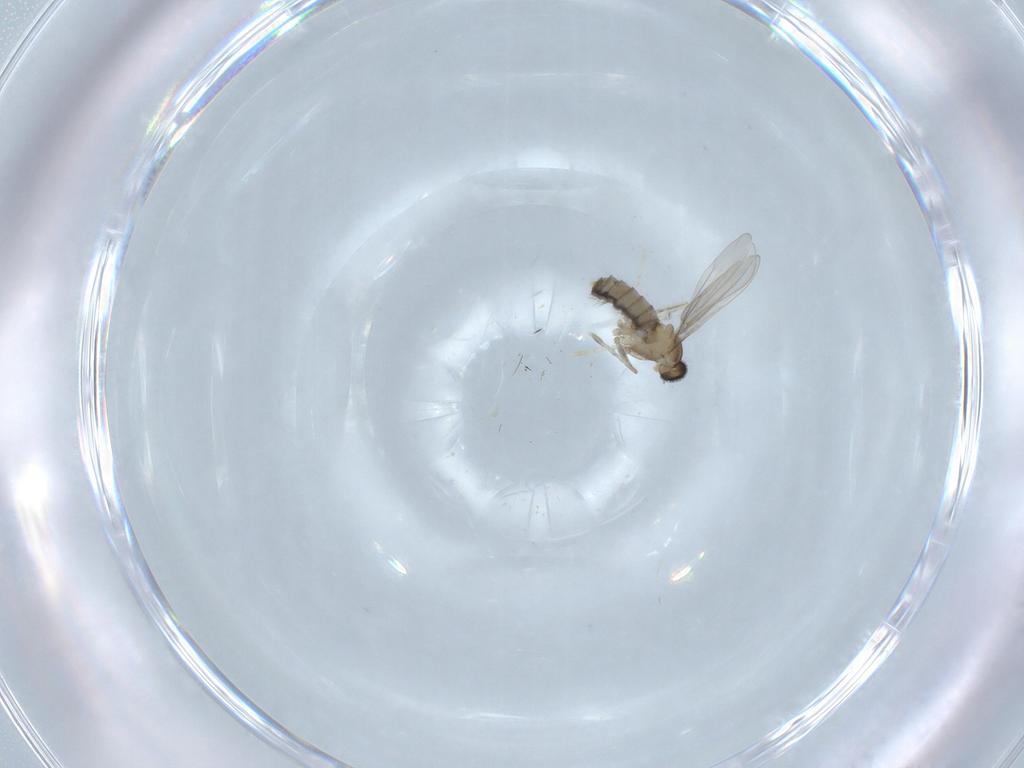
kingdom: Animalia
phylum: Arthropoda
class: Insecta
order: Diptera
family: Cecidomyiidae
